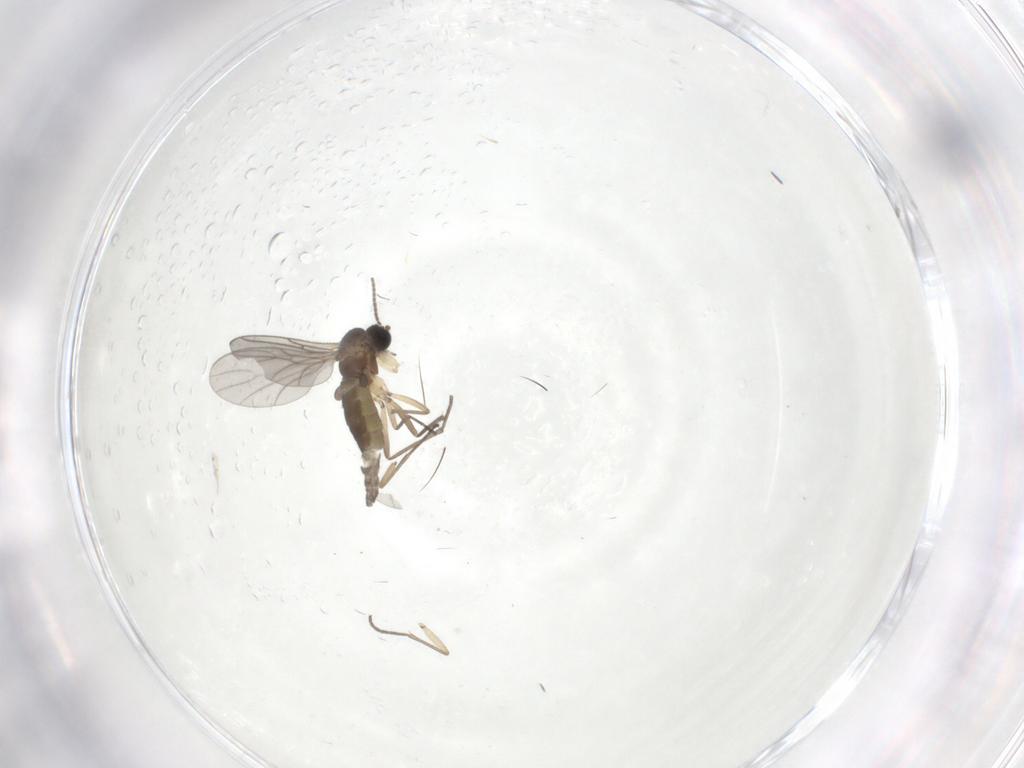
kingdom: Animalia
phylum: Arthropoda
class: Insecta
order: Diptera
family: Sciaridae
